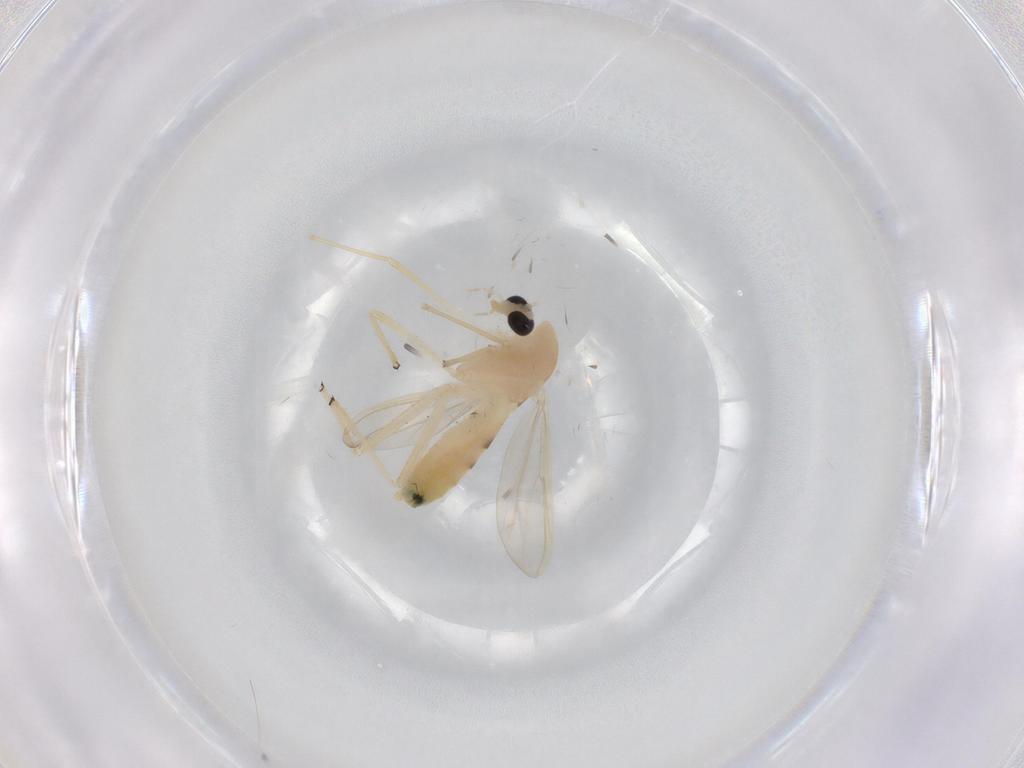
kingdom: Animalia
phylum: Arthropoda
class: Insecta
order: Diptera
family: Chironomidae
